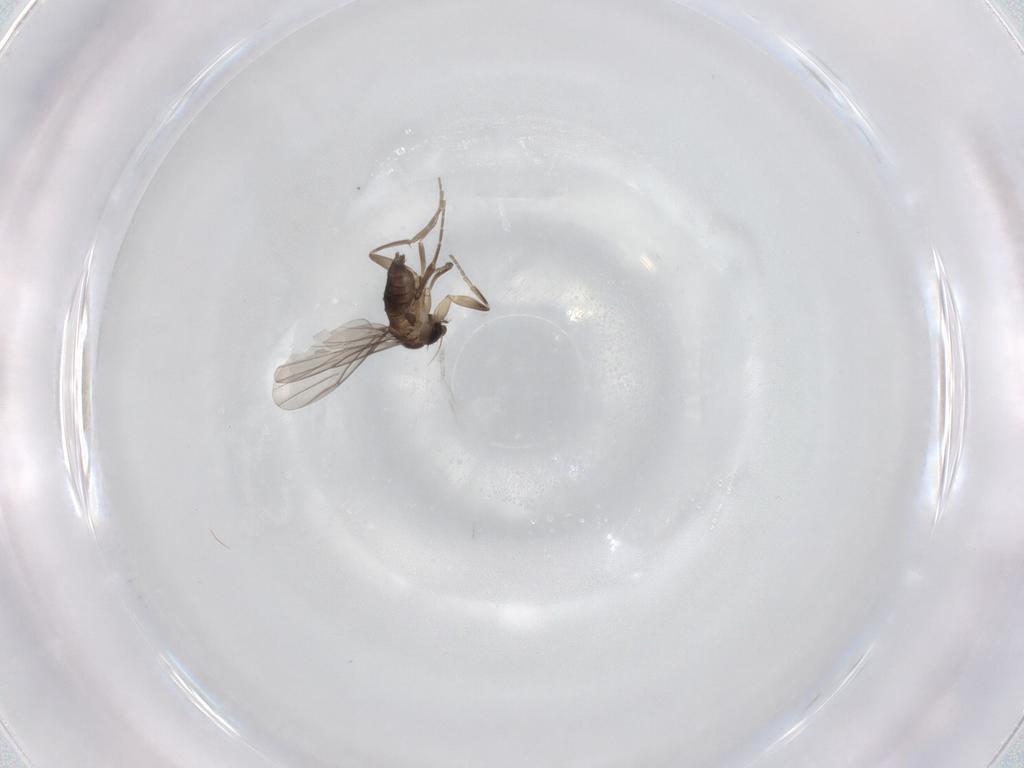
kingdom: Animalia
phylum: Arthropoda
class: Insecta
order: Diptera
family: Phoridae
